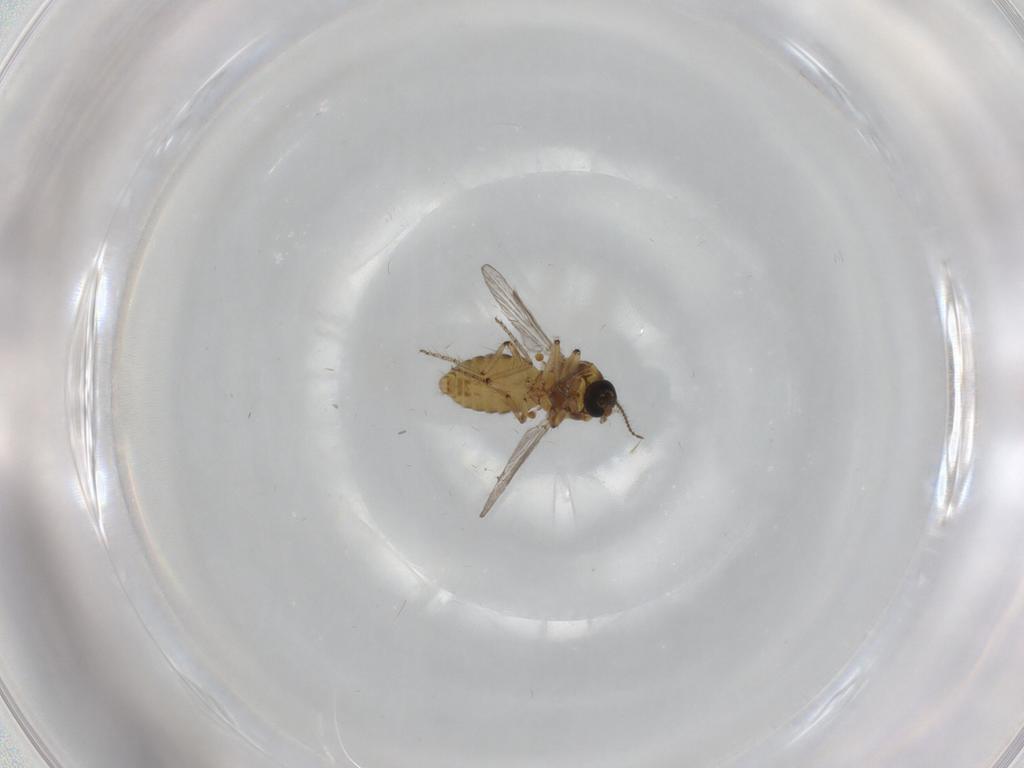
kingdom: Animalia
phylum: Arthropoda
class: Insecta
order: Diptera
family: Ceratopogonidae
